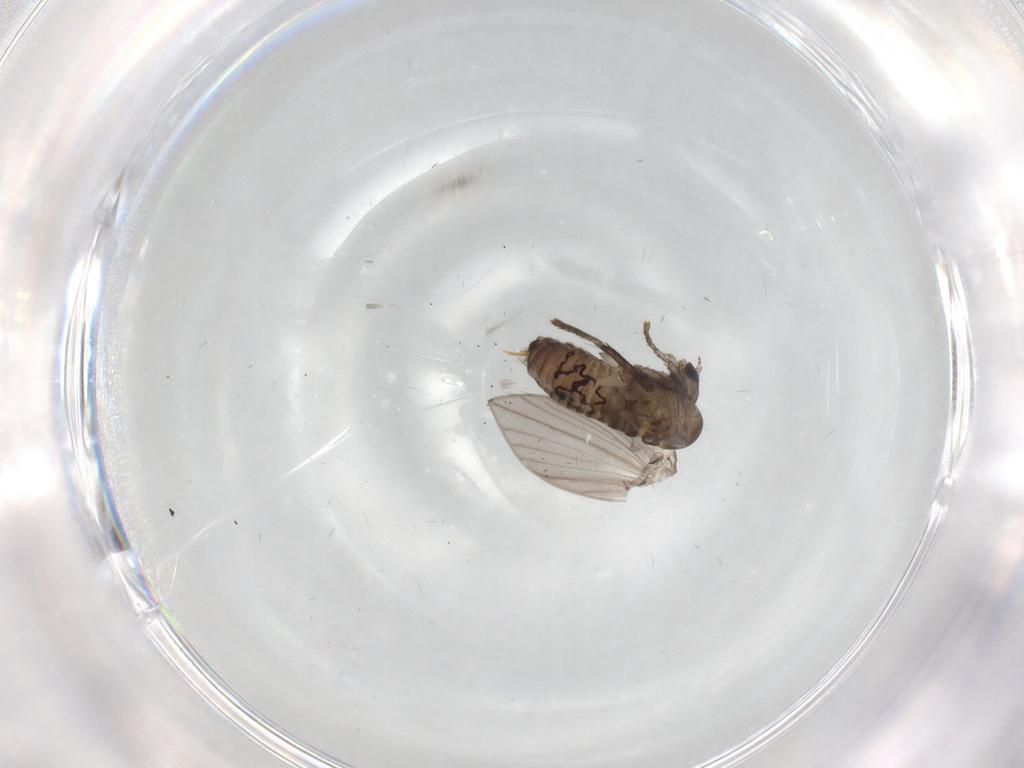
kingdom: Animalia
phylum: Arthropoda
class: Insecta
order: Diptera
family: Psychodidae
